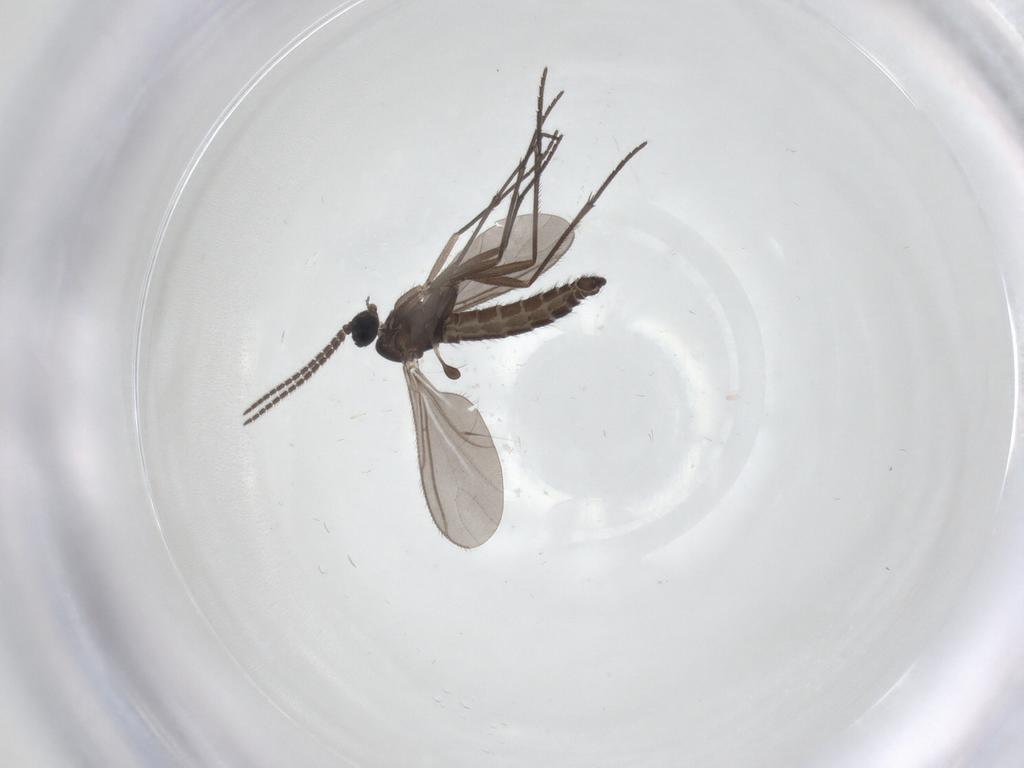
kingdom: Animalia
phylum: Arthropoda
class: Insecta
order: Diptera
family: Sciaridae
